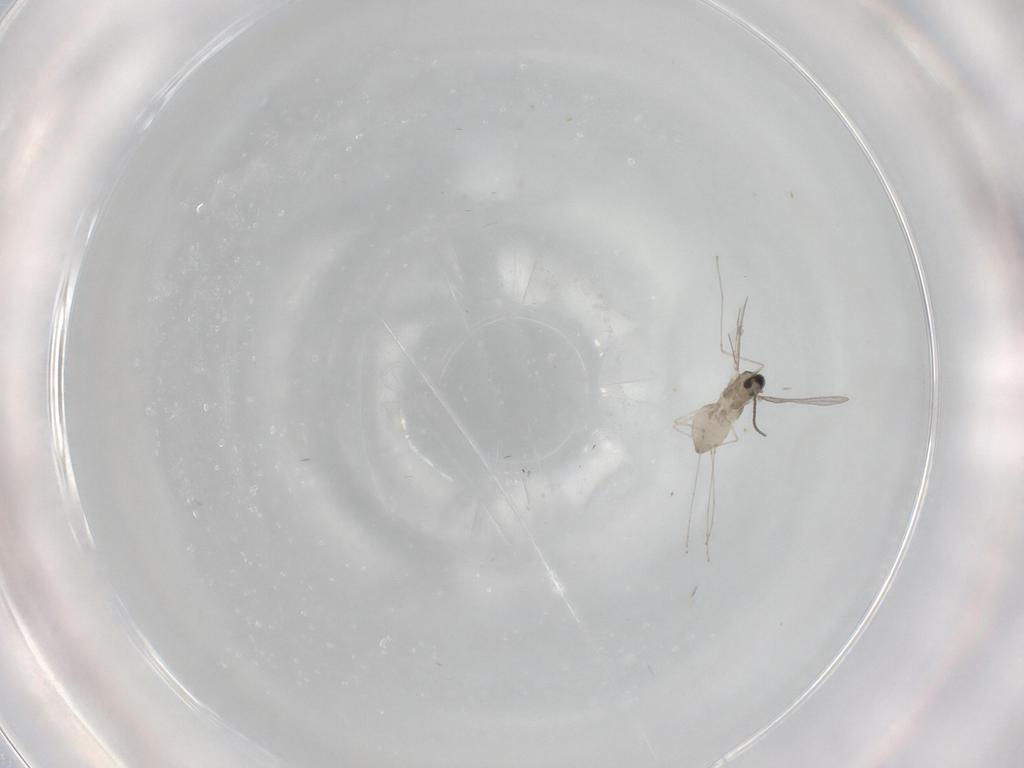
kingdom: Animalia
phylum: Arthropoda
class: Insecta
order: Diptera
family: Cecidomyiidae
